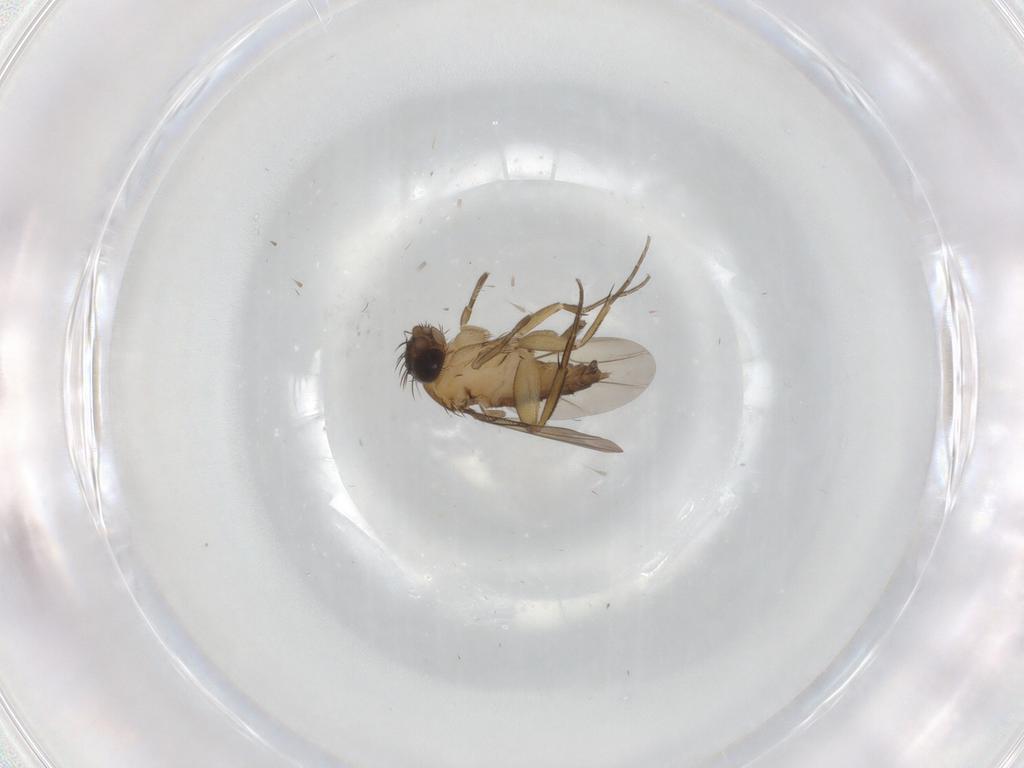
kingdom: Animalia
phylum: Arthropoda
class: Insecta
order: Diptera
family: Phoridae
